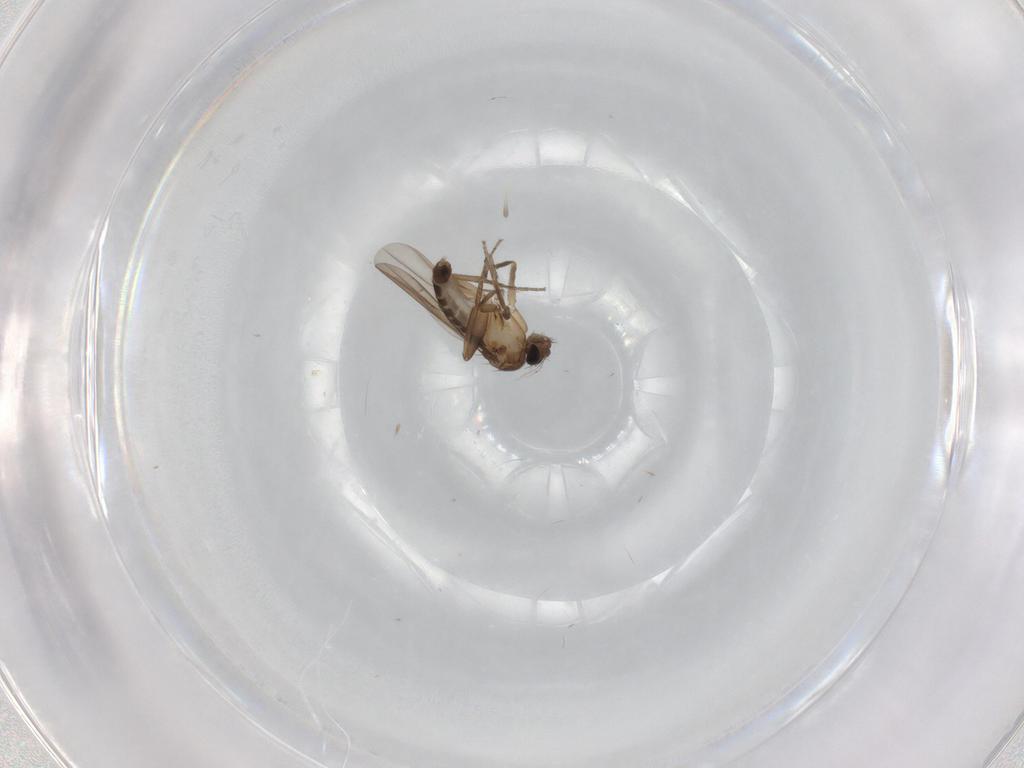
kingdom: Animalia
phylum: Arthropoda
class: Insecta
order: Diptera
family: Phoridae
